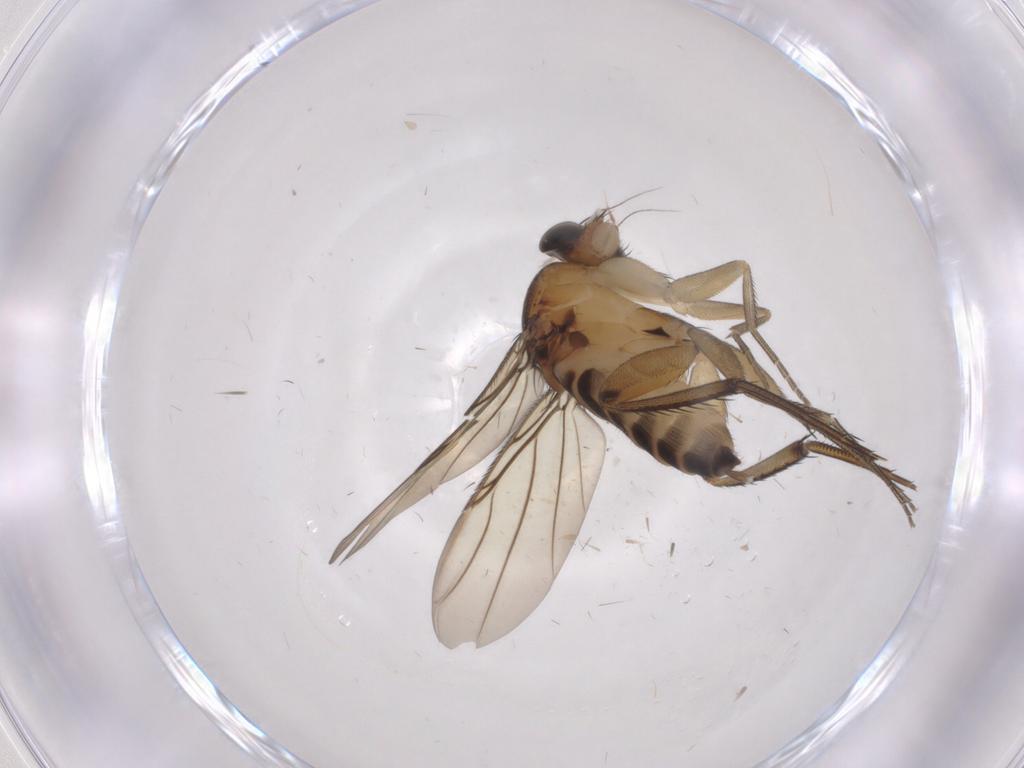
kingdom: Animalia
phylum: Arthropoda
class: Insecta
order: Diptera
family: Phoridae
